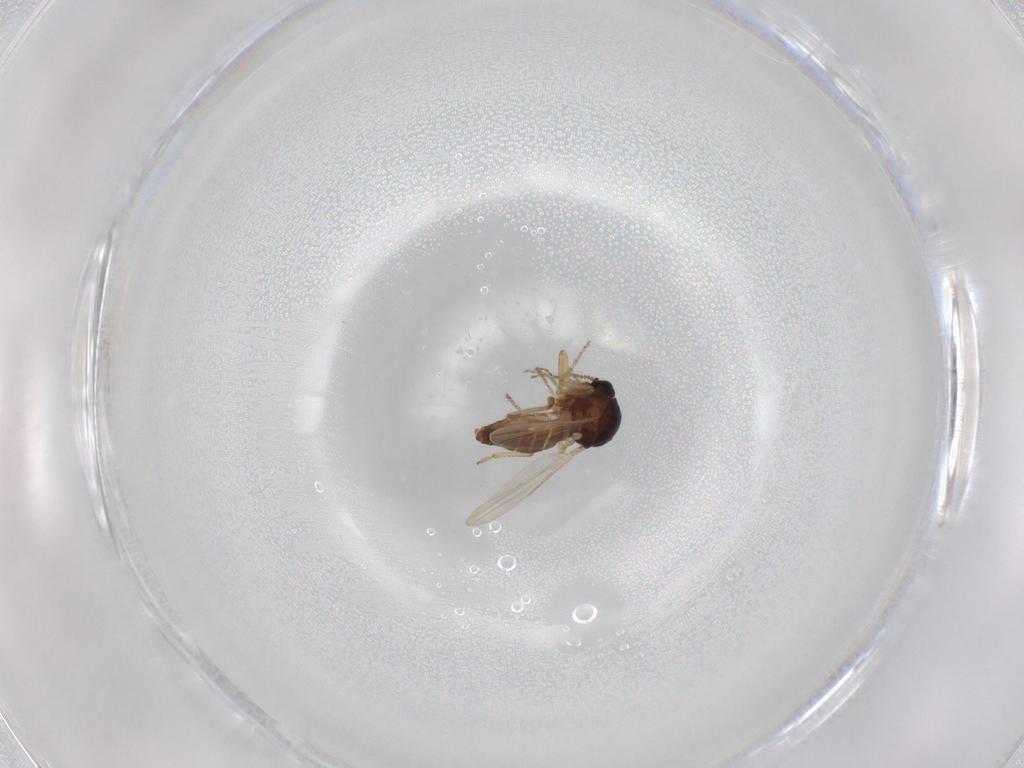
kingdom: Animalia
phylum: Arthropoda
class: Insecta
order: Diptera
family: Ceratopogonidae
